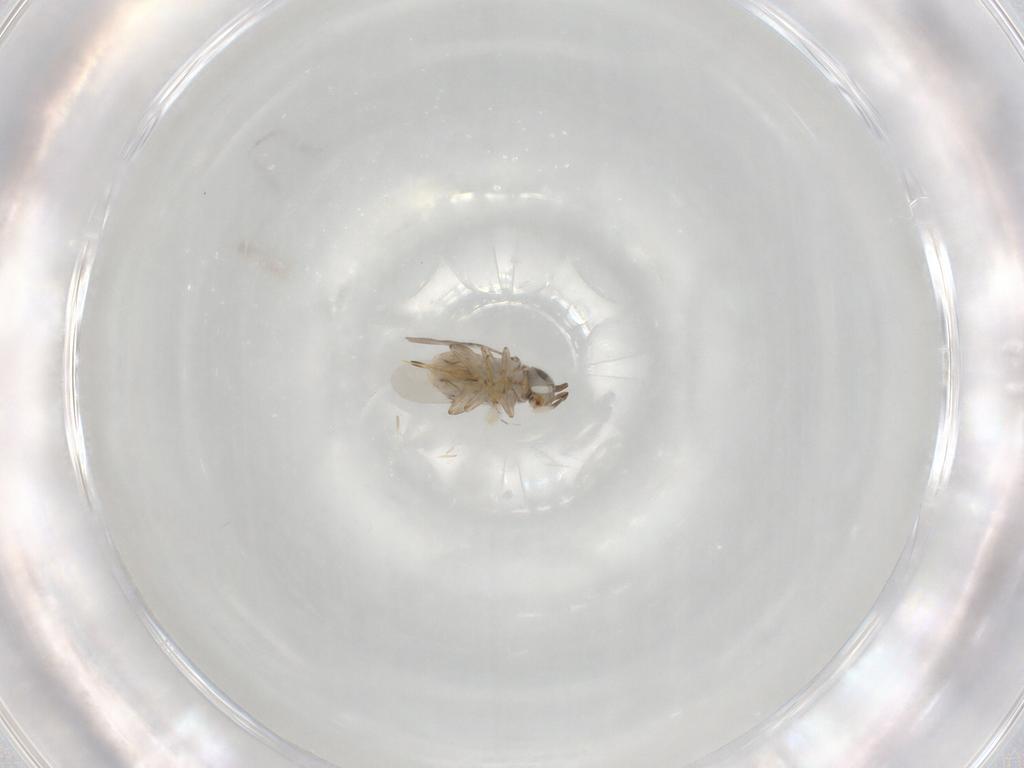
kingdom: Animalia
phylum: Arthropoda
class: Insecta
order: Hymenoptera
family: Encyrtidae
